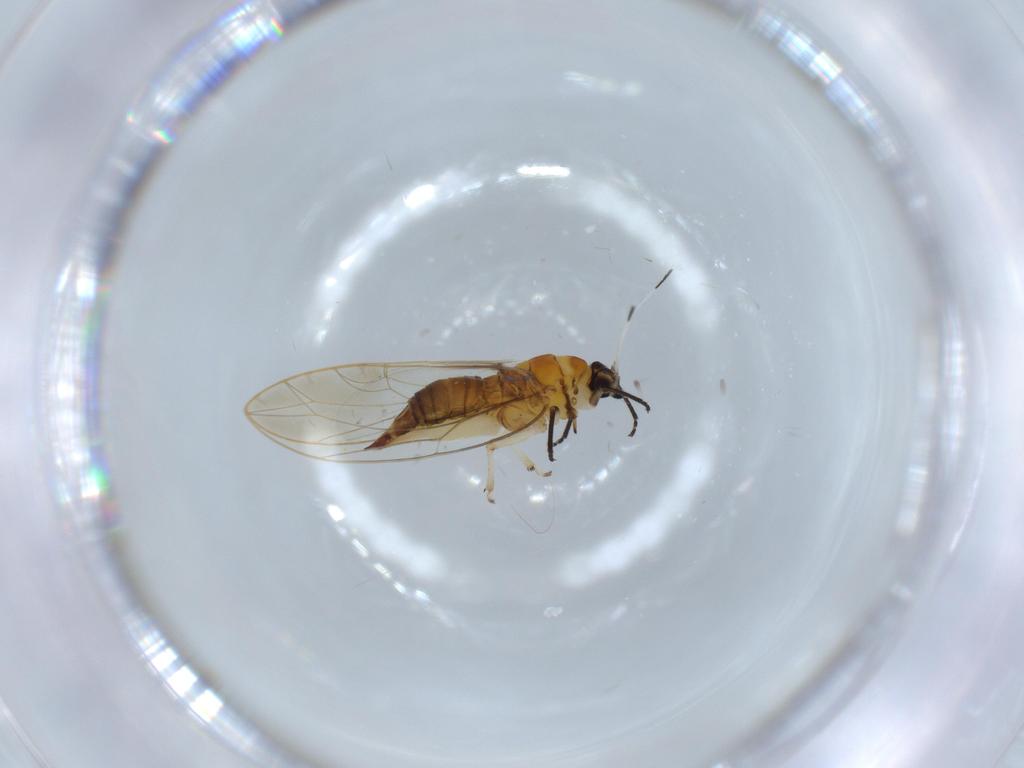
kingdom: Animalia
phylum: Arthropoda
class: Insecta
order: Hemiptera
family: Triozidae
